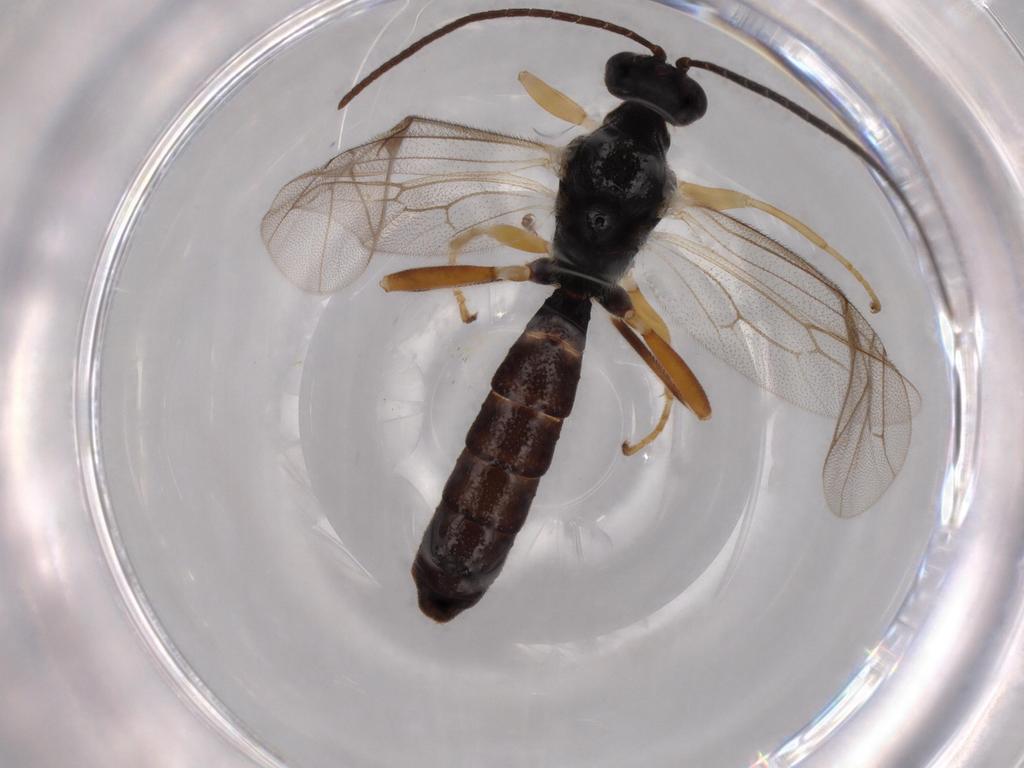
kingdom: Animalia
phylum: Arthropoda
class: Insecta
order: Hymenoptera
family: Ichneumonidae
